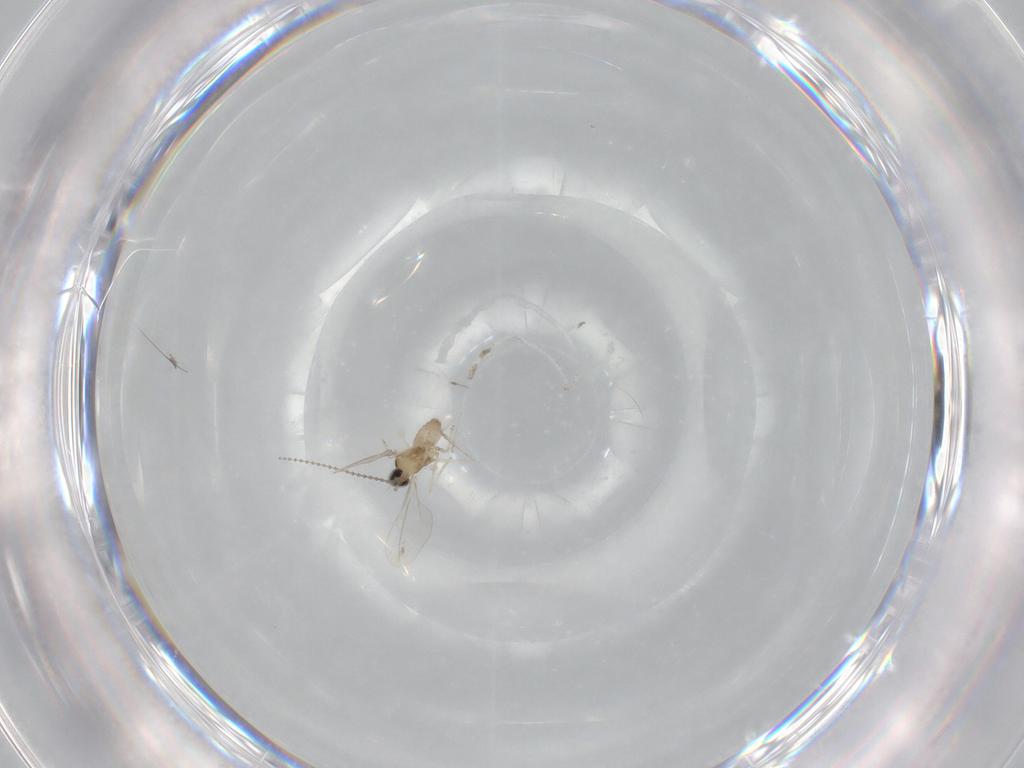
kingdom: Animalia
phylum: Arthropoda
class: Insecta
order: Diptera
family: Cecidomyiidae
